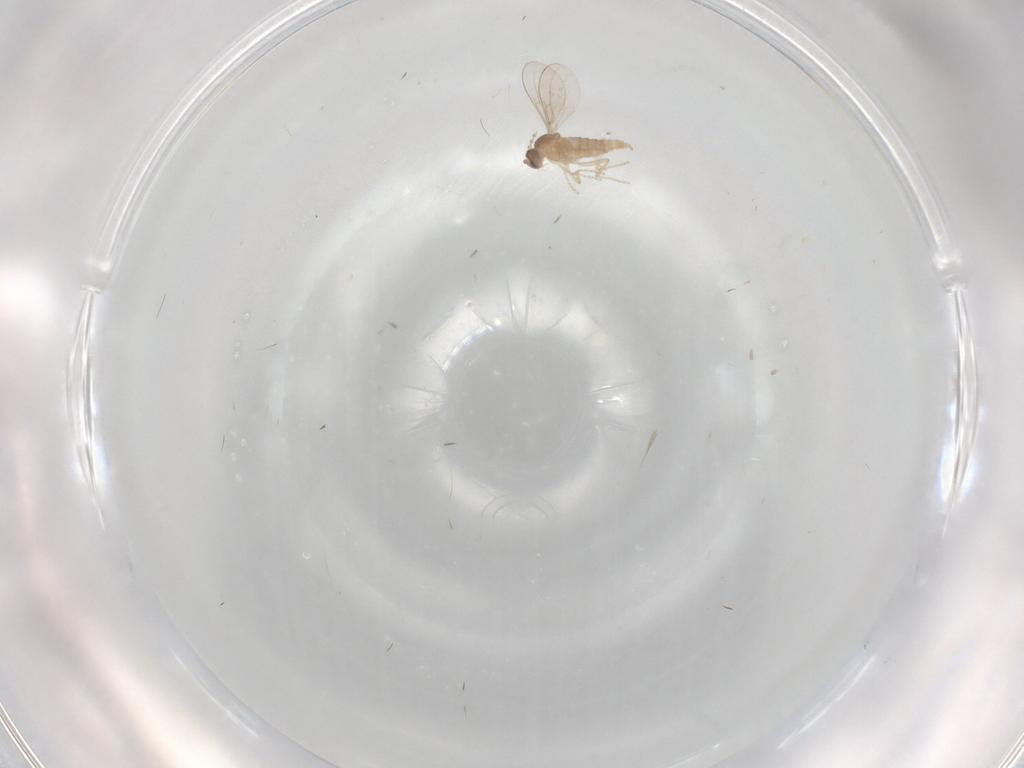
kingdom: Animalia
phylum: Arthropoda
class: Insecta
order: Diptera
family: Cecidomyiidae
